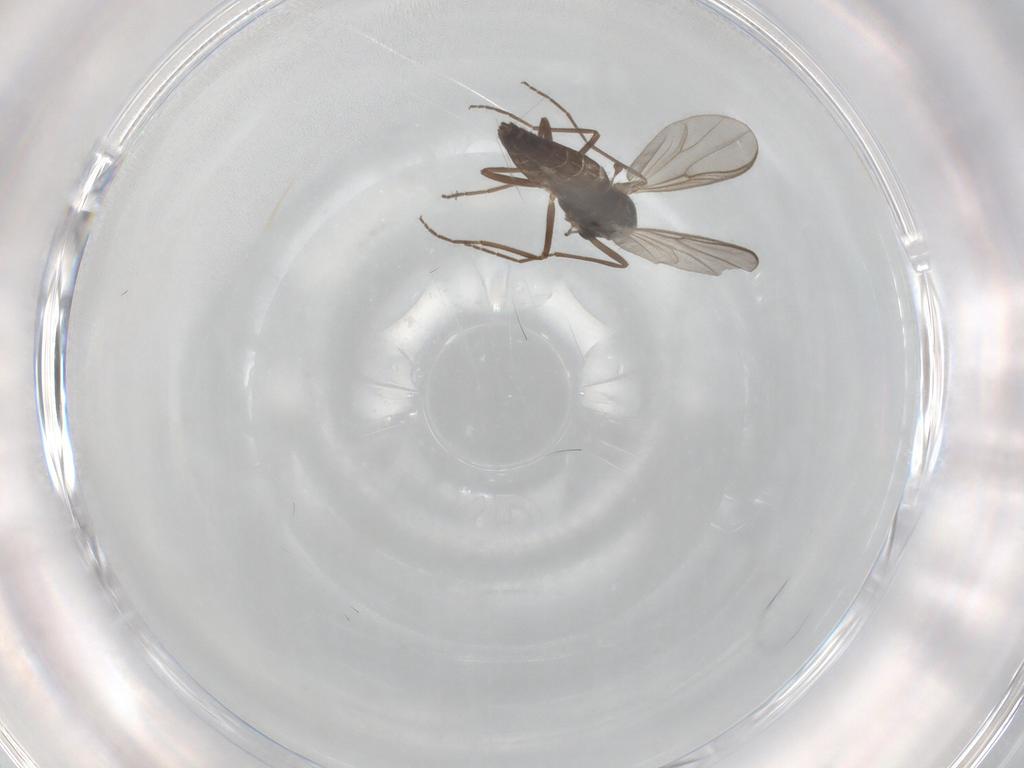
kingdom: Animalia
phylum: Arthropoda
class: Insecta
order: Diptera
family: Chironomidae
